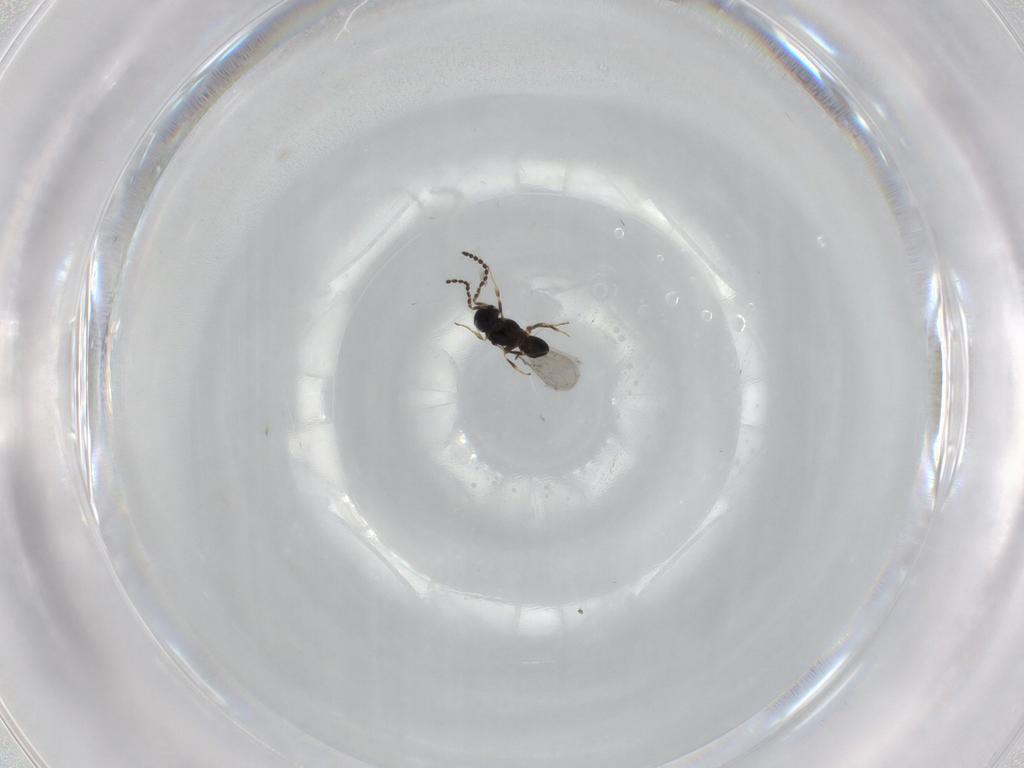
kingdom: Animalia
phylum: Arthropoda
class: Insecta
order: Hymenoptera
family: Scelionidae
